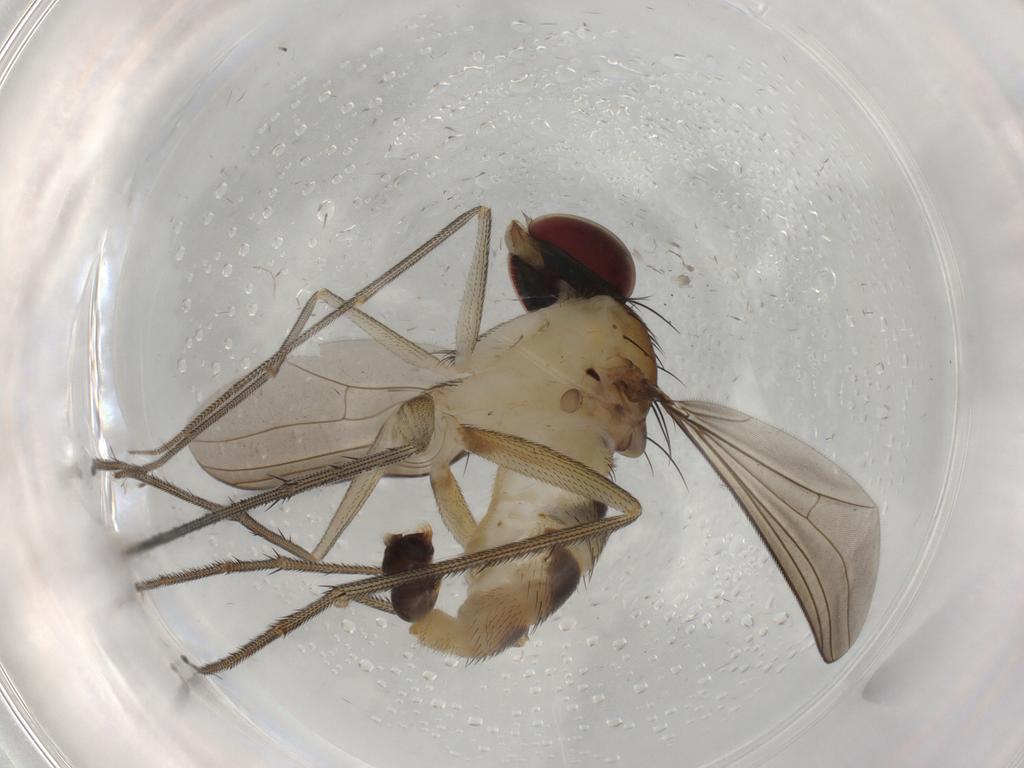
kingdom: Animalia
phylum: Arthropoda
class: Insecta
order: Diptera
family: Dolichopodidae
